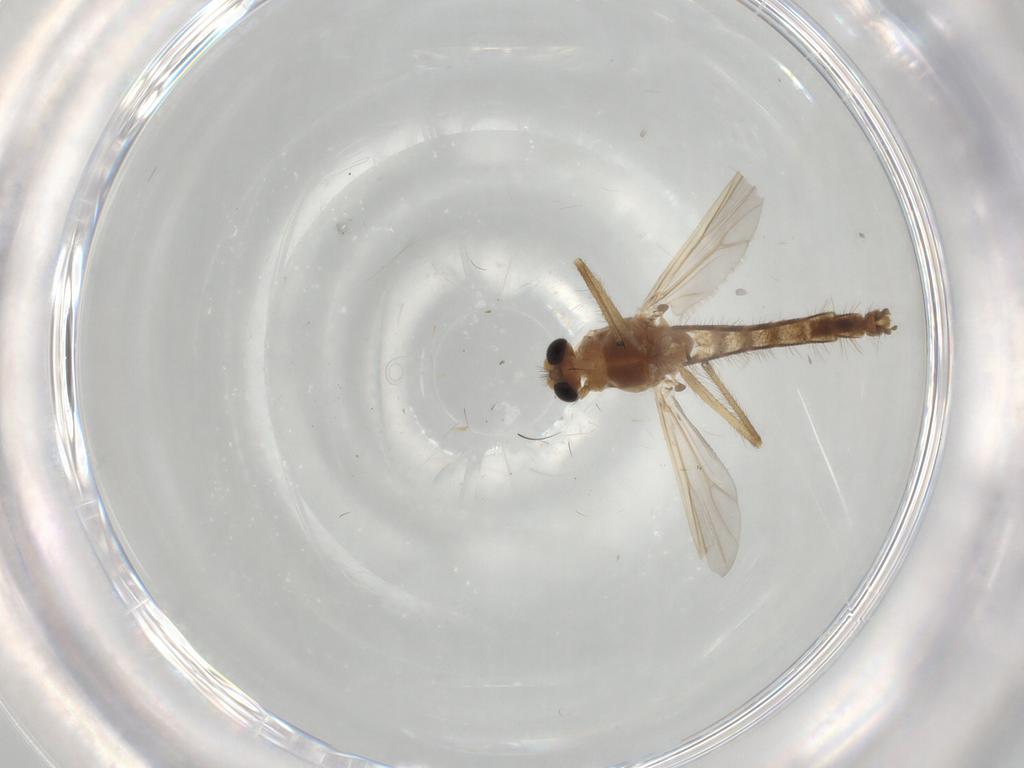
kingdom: Animalia
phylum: Arthropoda
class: Insecta
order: Diptera
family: Chironomidae
